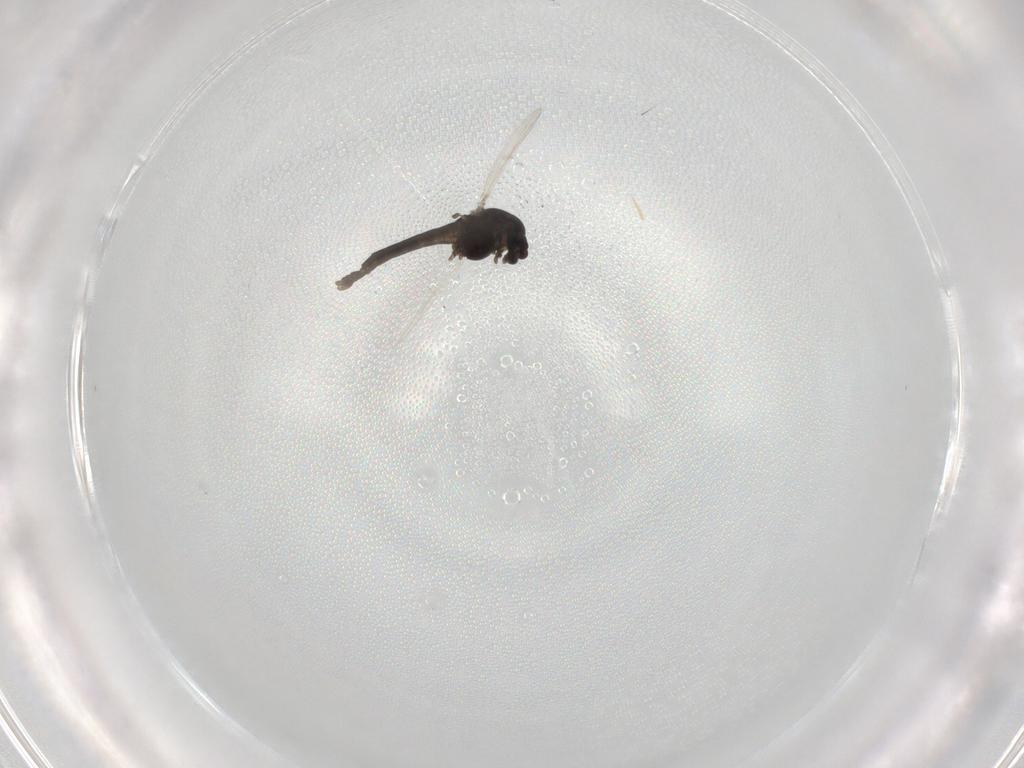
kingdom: Animalia
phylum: Arthropoda
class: Insecta
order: Diptera
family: Chironomidae
